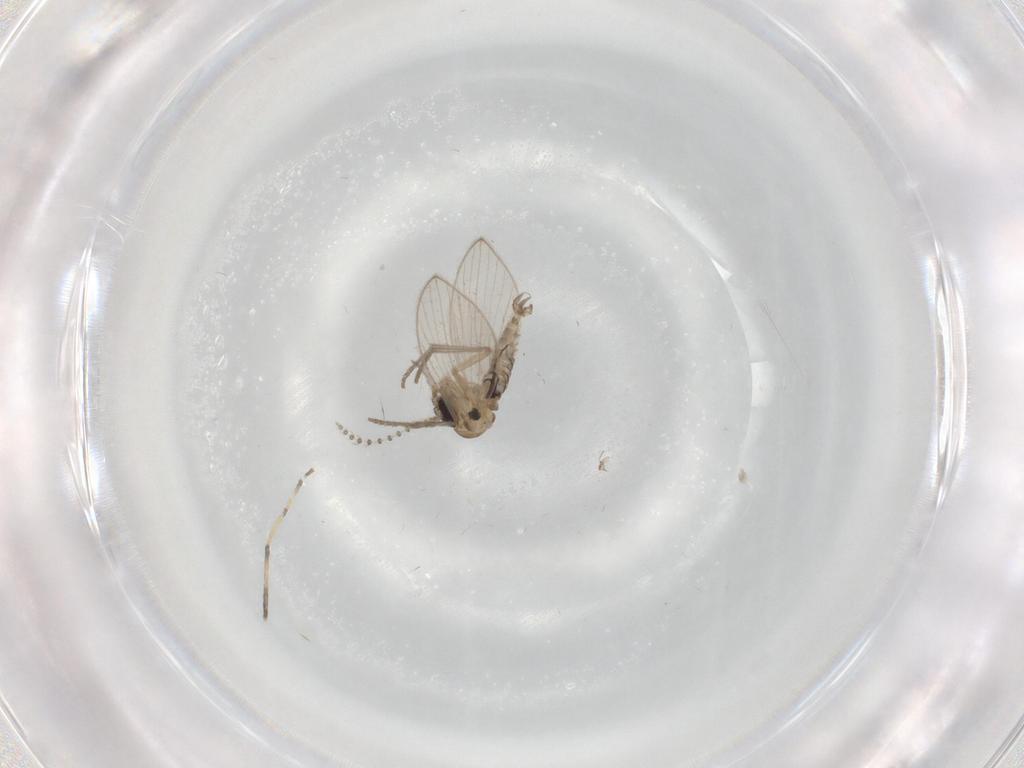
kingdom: Animalia
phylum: Arthropoda
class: Insecta
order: Diptera
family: Psychodidae
